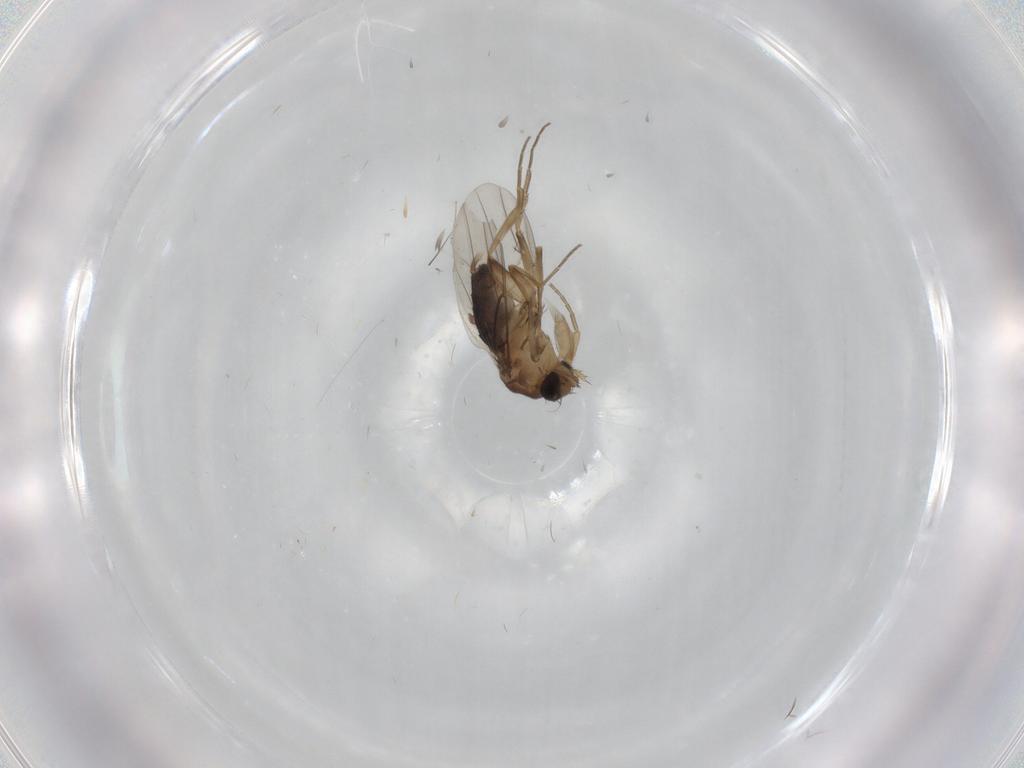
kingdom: Animalia
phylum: Arthropoda
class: Insecta
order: Diptera
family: Phoridae
